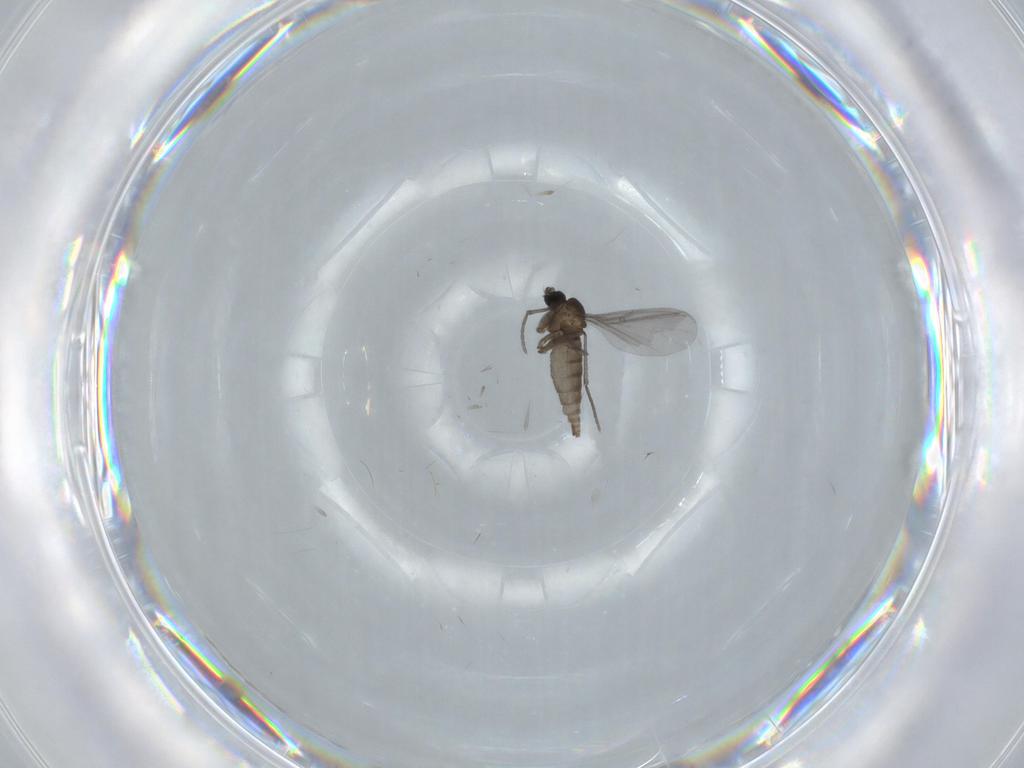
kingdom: Animalia
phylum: Arthropoda
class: Insecta
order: Diptera
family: Sciaridae
